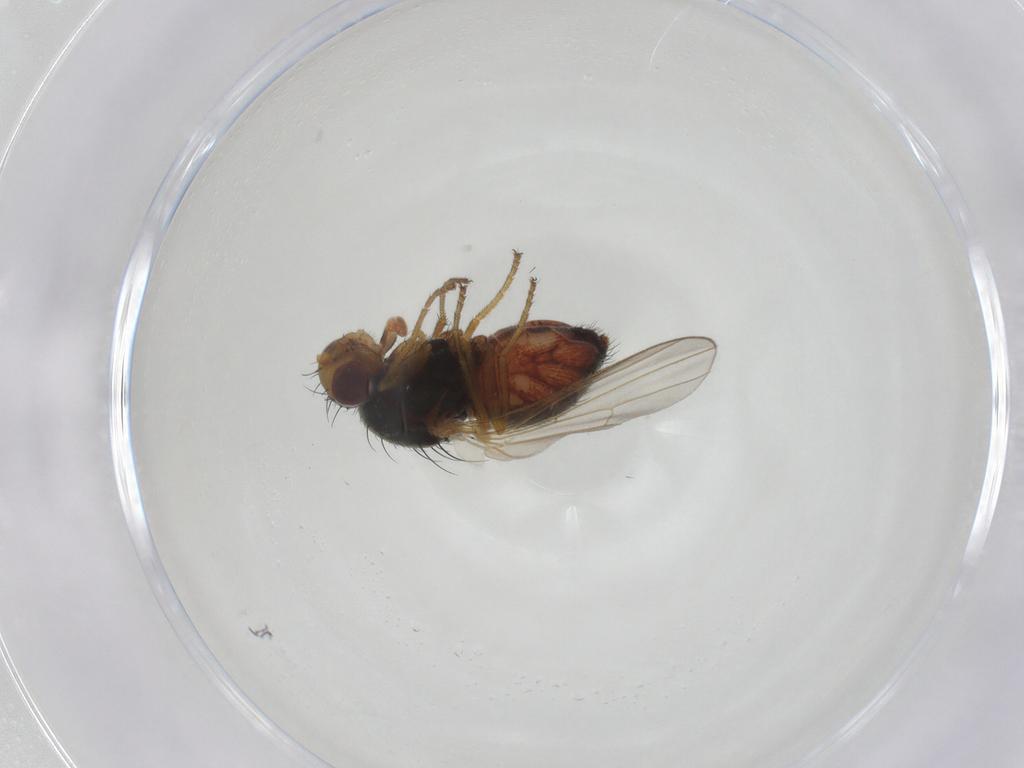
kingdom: Animalia
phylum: Arthropoda
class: Insecta
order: Diptera
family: Heleomyzidae
